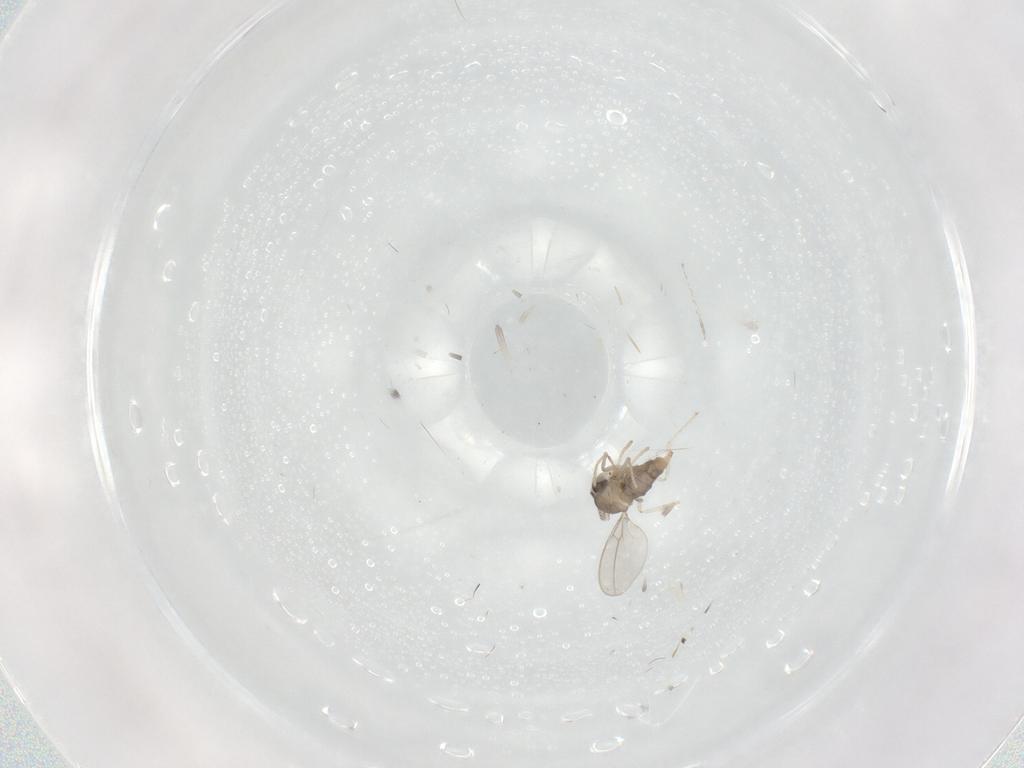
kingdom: Animalia
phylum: Arthropoda
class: Insecta
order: Diptera
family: Cecidomyiidae
